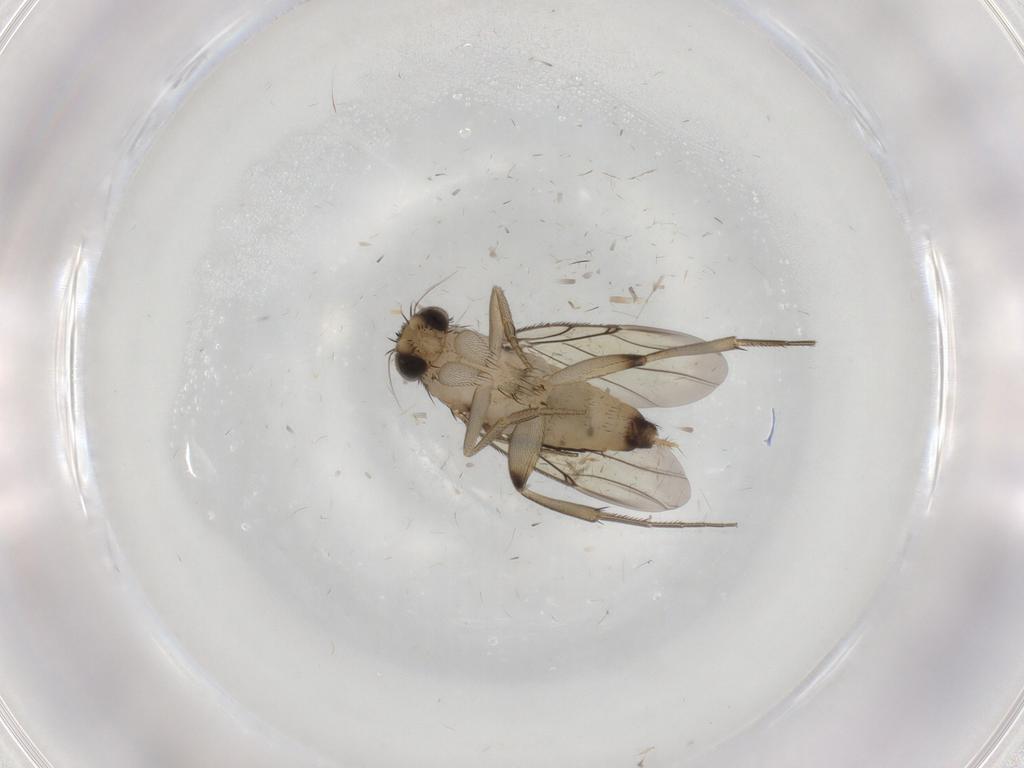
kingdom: Animalia
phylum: Arthropoda
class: Insecta
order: Diptera
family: Phoridae
